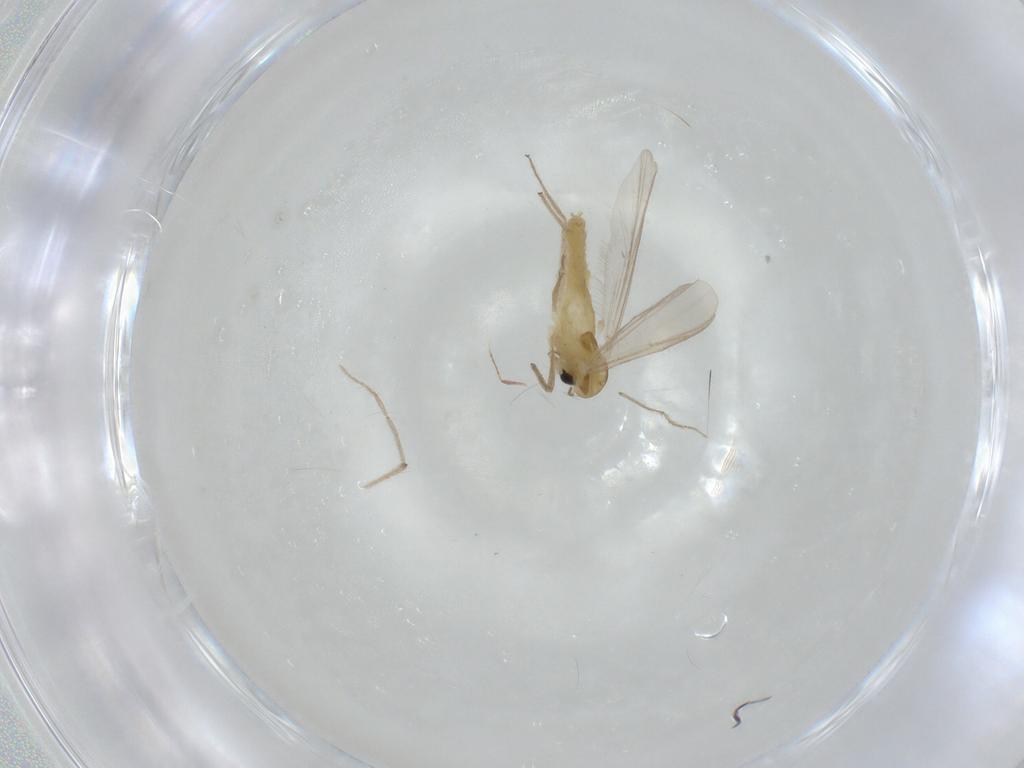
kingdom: Animalia
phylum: Arthropoda
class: Insecta
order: Diptera
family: Chironomidae
